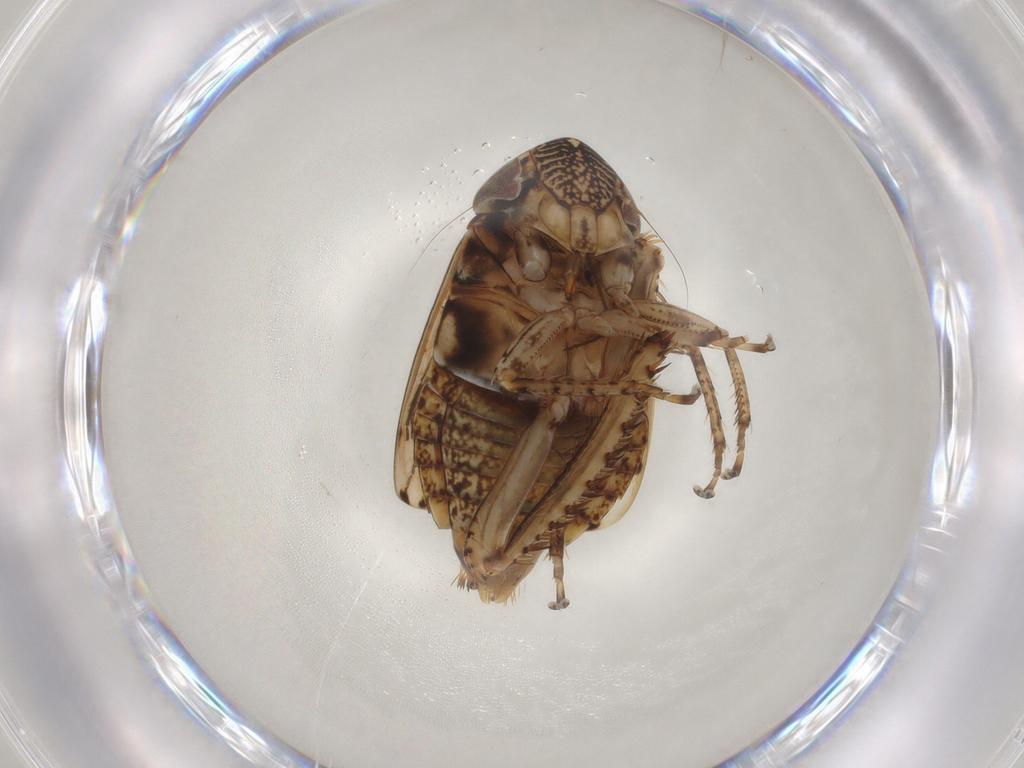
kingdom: Animalia
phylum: Arthropoda
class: Insecta
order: Hemiptera
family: Cicadellidae
